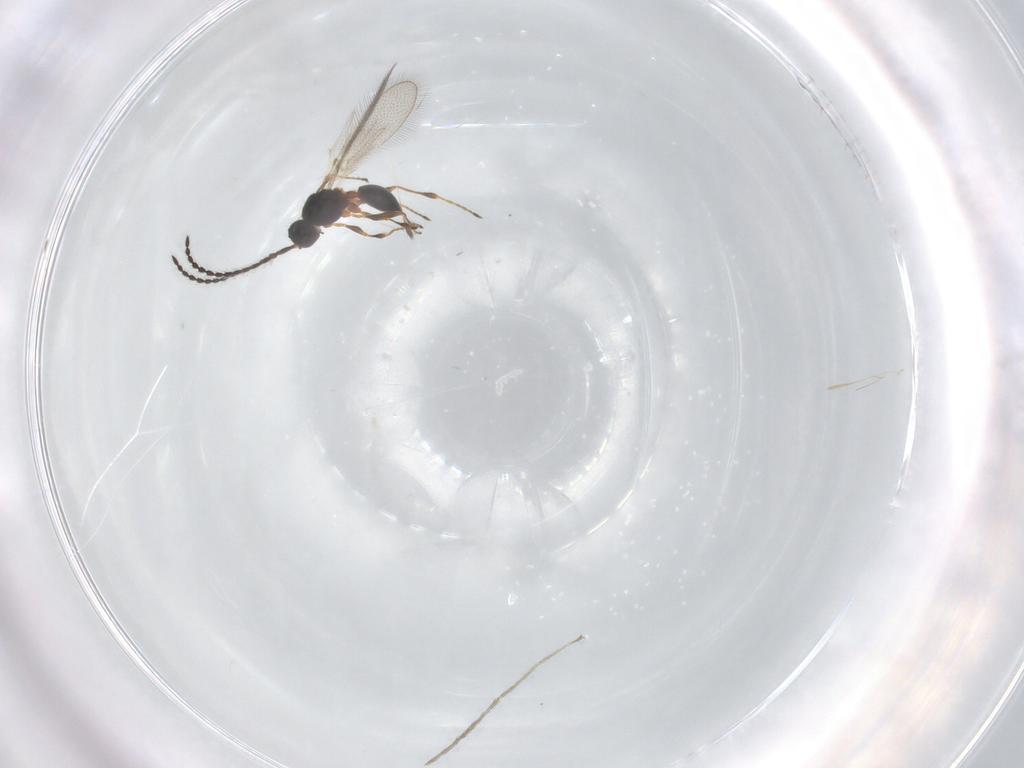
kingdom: Animalia
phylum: Arthropoda
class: Insecta
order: Hymenoptera
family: Diapriidae
